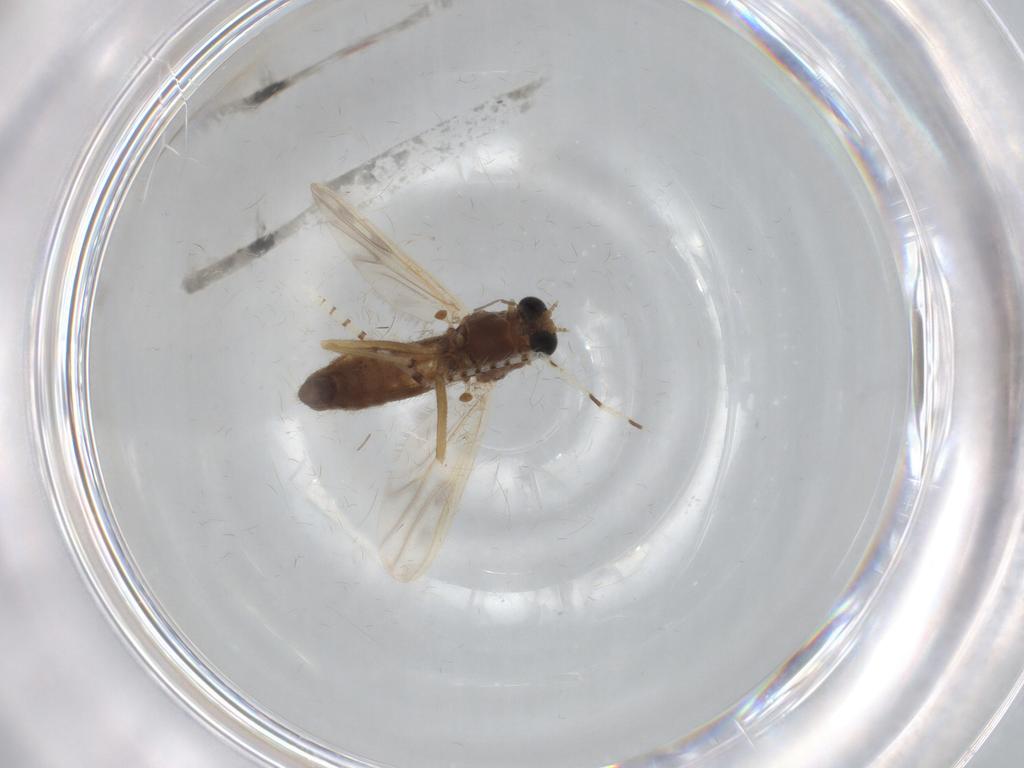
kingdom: Animalia
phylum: Arthropoda
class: Insecta
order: Diptera
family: Chironomidae
